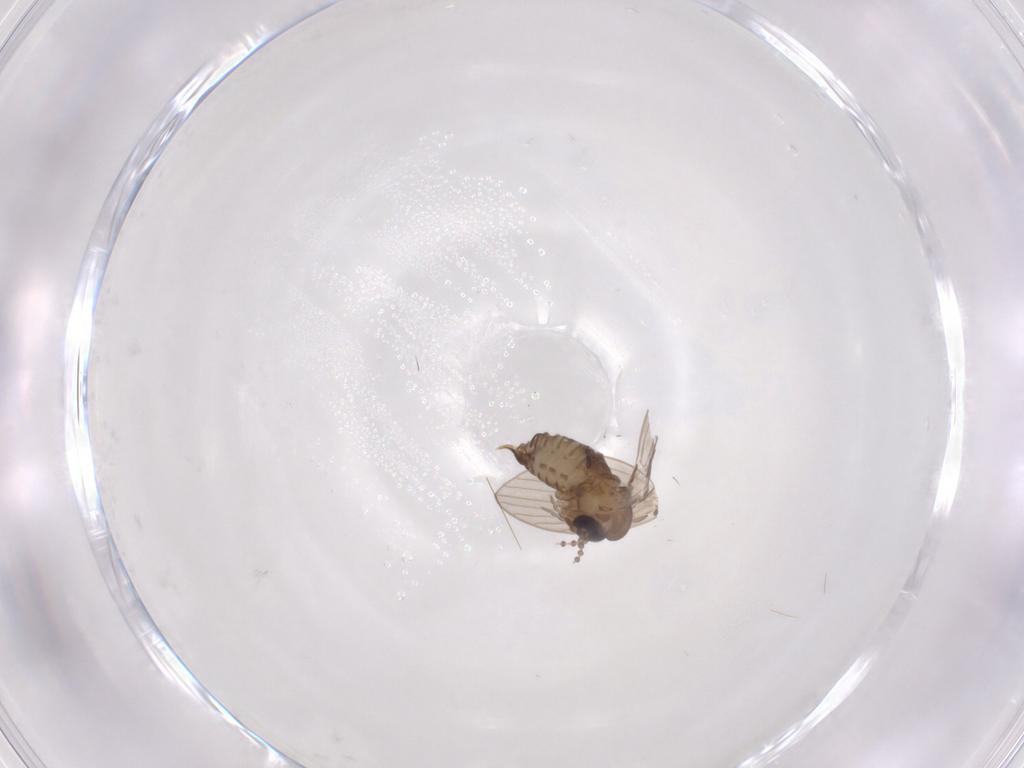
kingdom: Animalia
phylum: Arthropoda
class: Insecta
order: Diptera
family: Psychodidae
